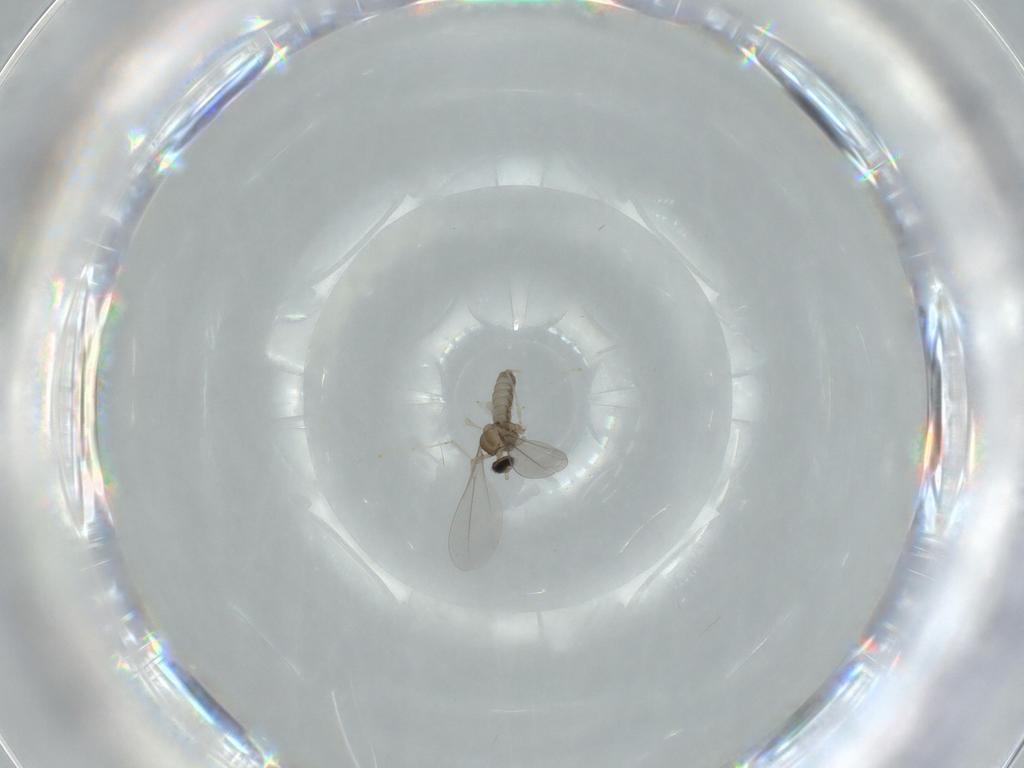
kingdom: Animalia
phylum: Arthropoda
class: Insecta
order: Diptera
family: Cecidomyiidae
